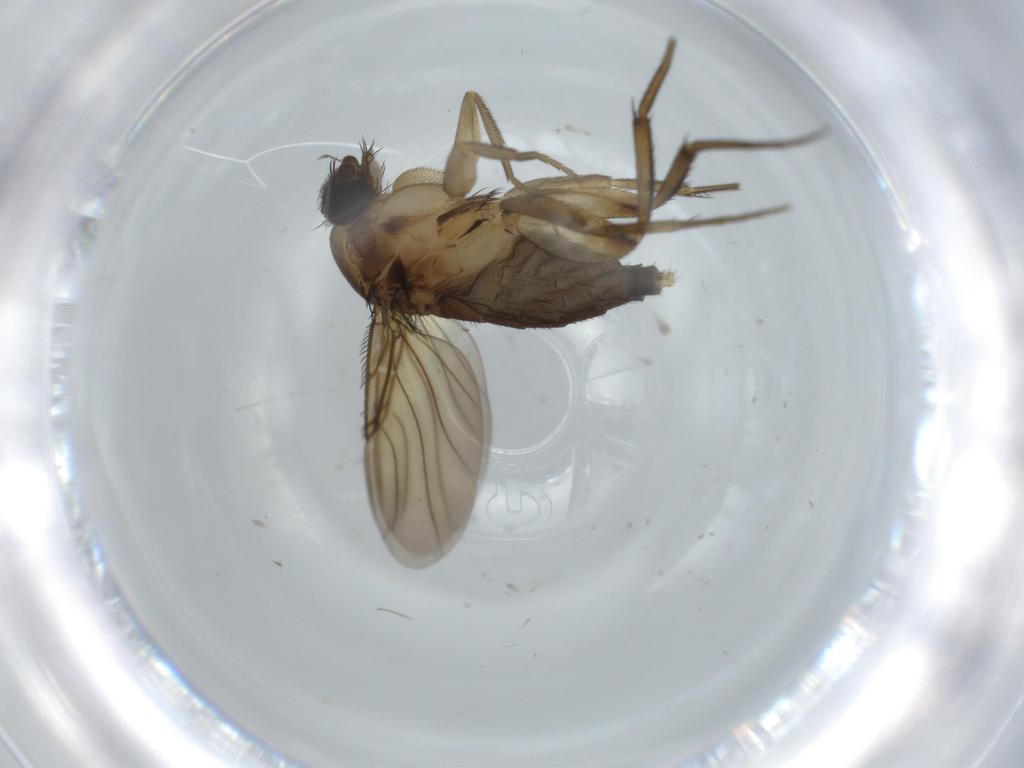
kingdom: Animalia
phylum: Arthropoda
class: Insecta
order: Diptera
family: Phoridae
